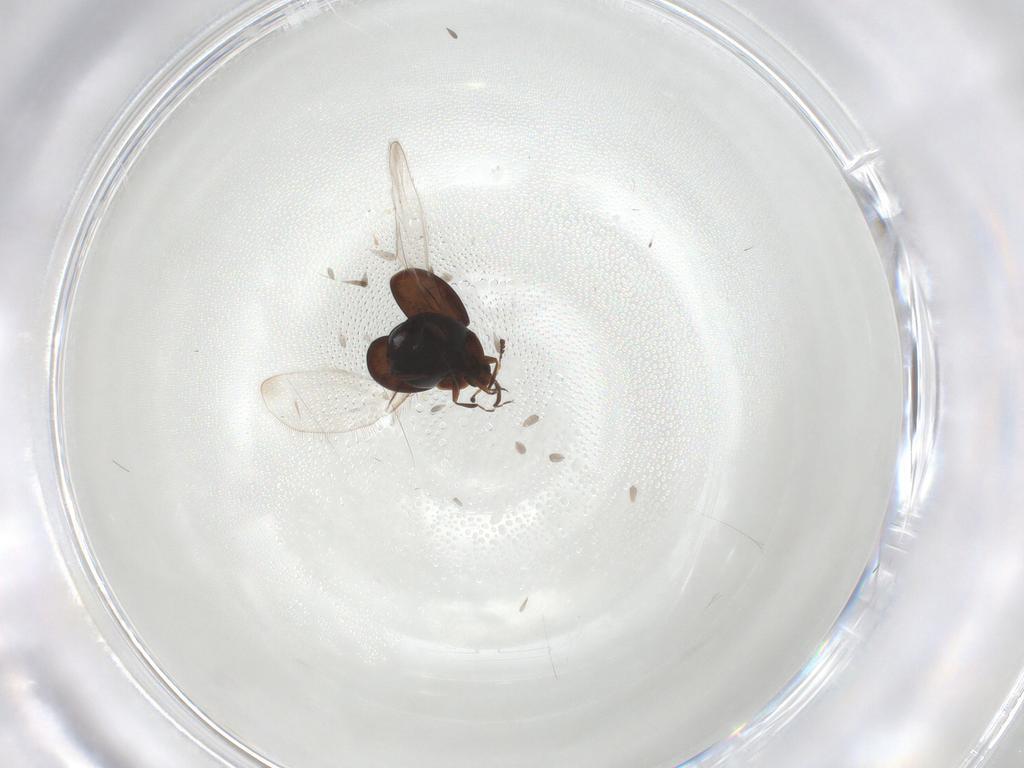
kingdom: Animalia
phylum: Arthropoda
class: Insecta
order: Coleoptera
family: Corylophidae
